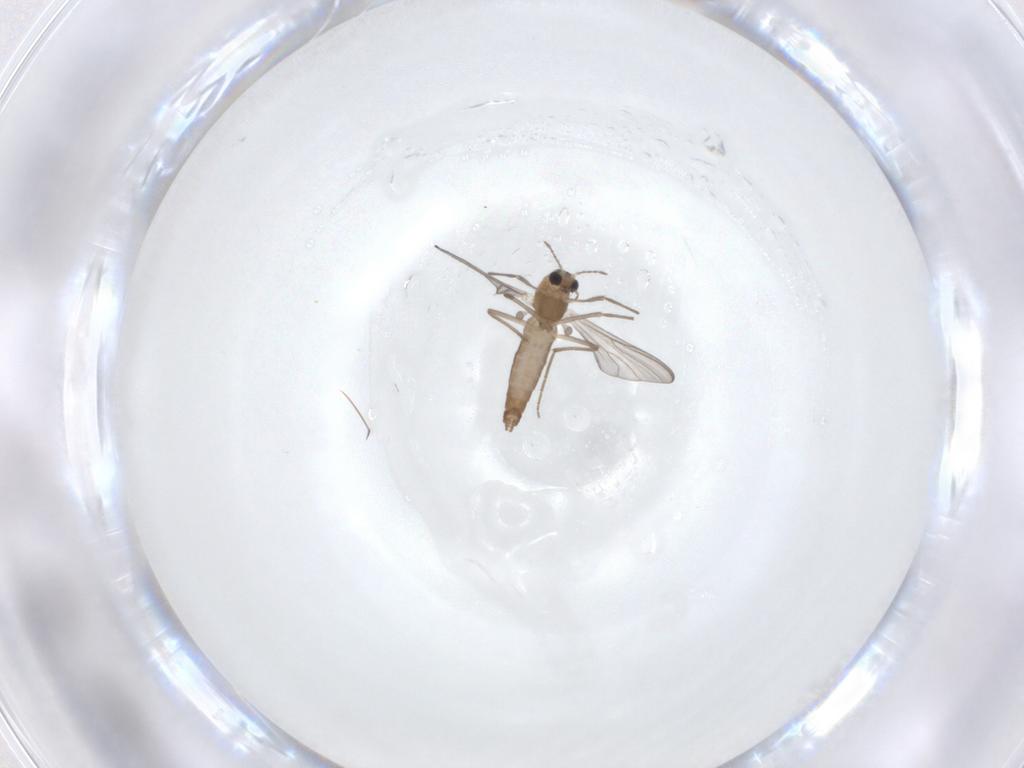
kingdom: Animalia
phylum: Arthropoda
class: Insecta
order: Diptera
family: Chironomidae
